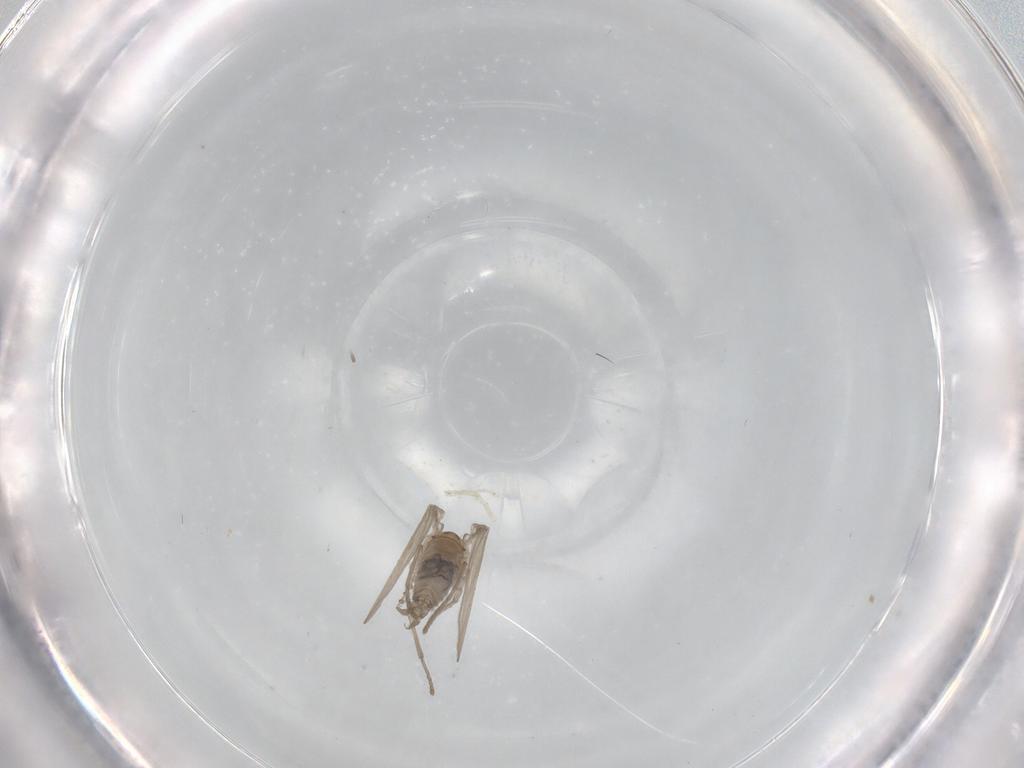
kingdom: Animalia
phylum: Arthropoda
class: Insecta
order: Diptera
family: Psychodidae
